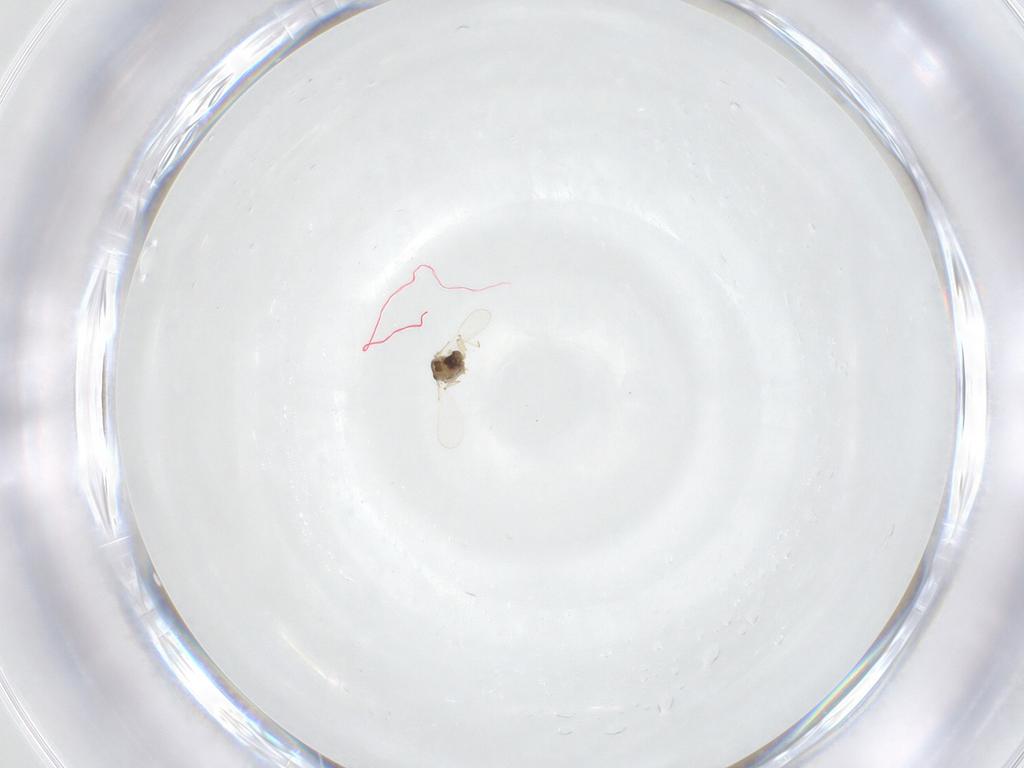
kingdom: Animalia
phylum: Arthropoda
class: Insecta
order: Diptera
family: Chironomidae
